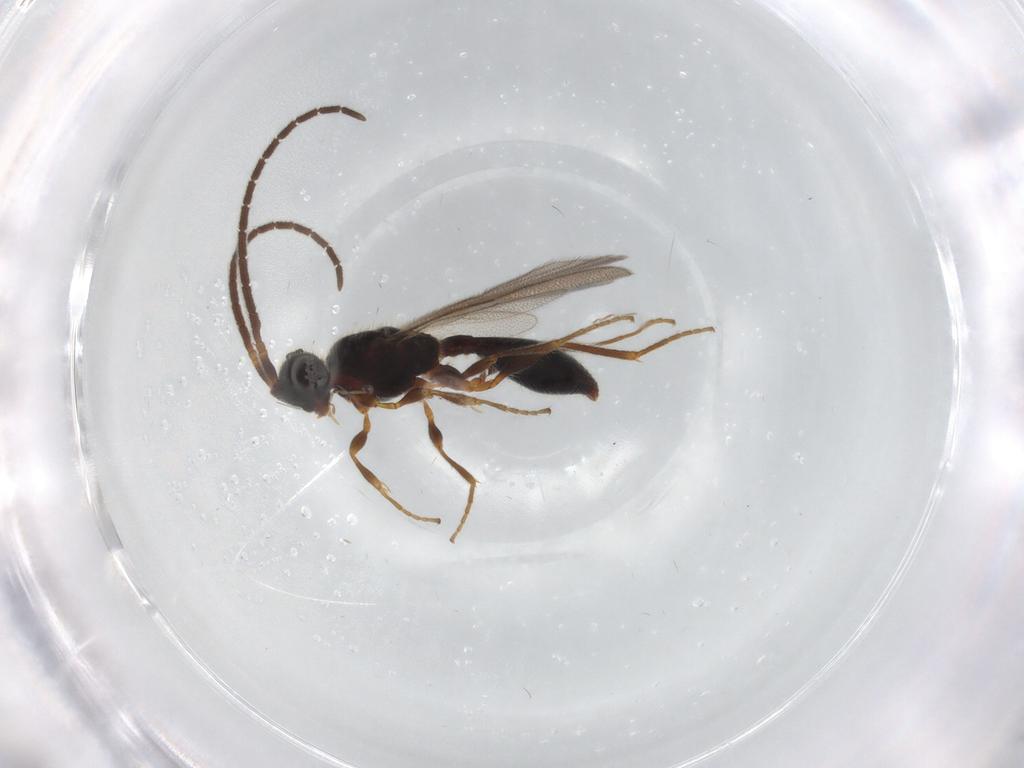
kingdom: Animalia
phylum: Arthropoda
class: Insecta
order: Hymenoptera
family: Diapriidae
